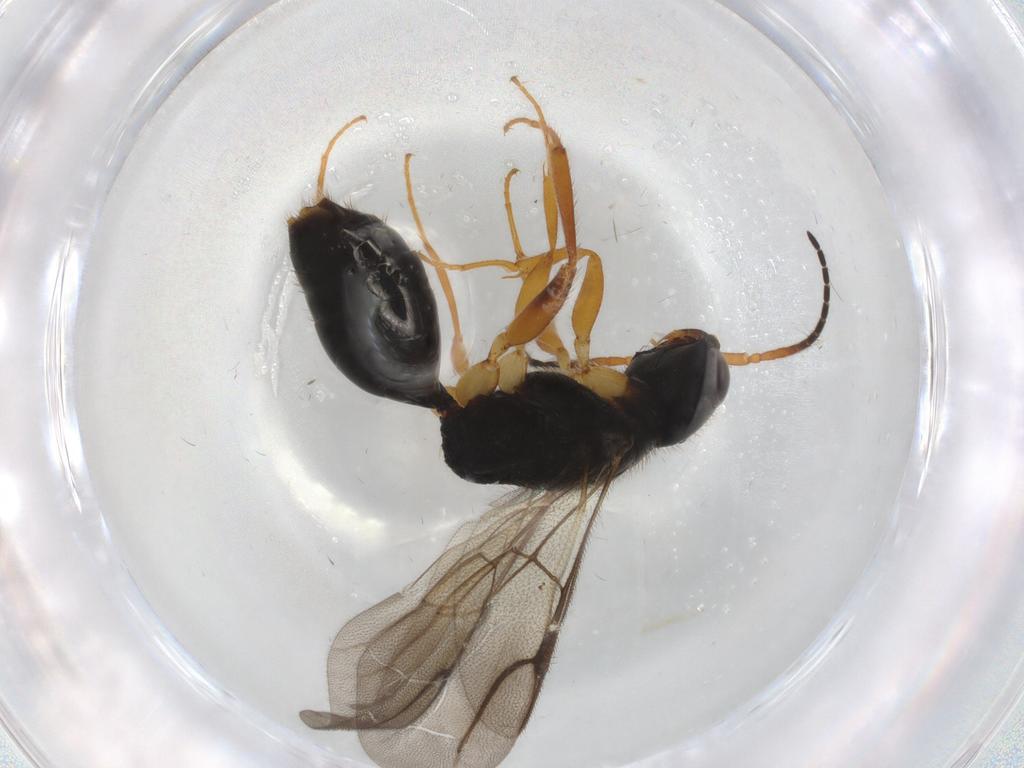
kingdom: Animalia
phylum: Arthropoda
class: Insecta
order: Hymenoptera
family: Bethylidae
